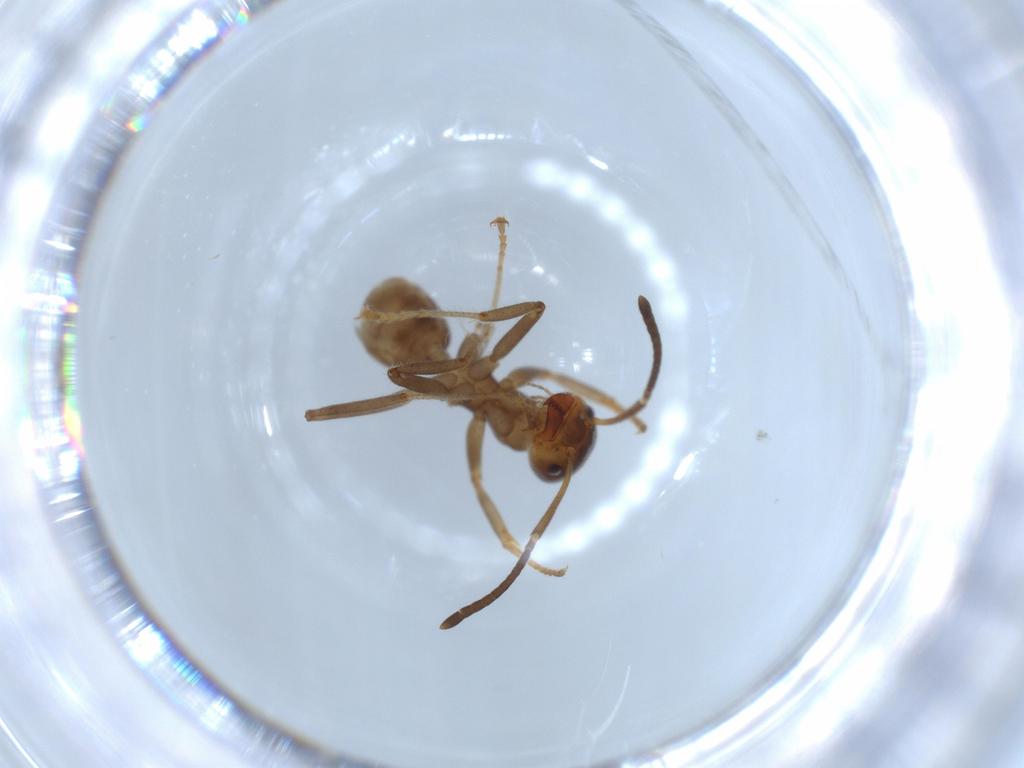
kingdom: Animalia
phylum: Arthropoda
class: Insecta
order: Hymenoptera
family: Formicidae
